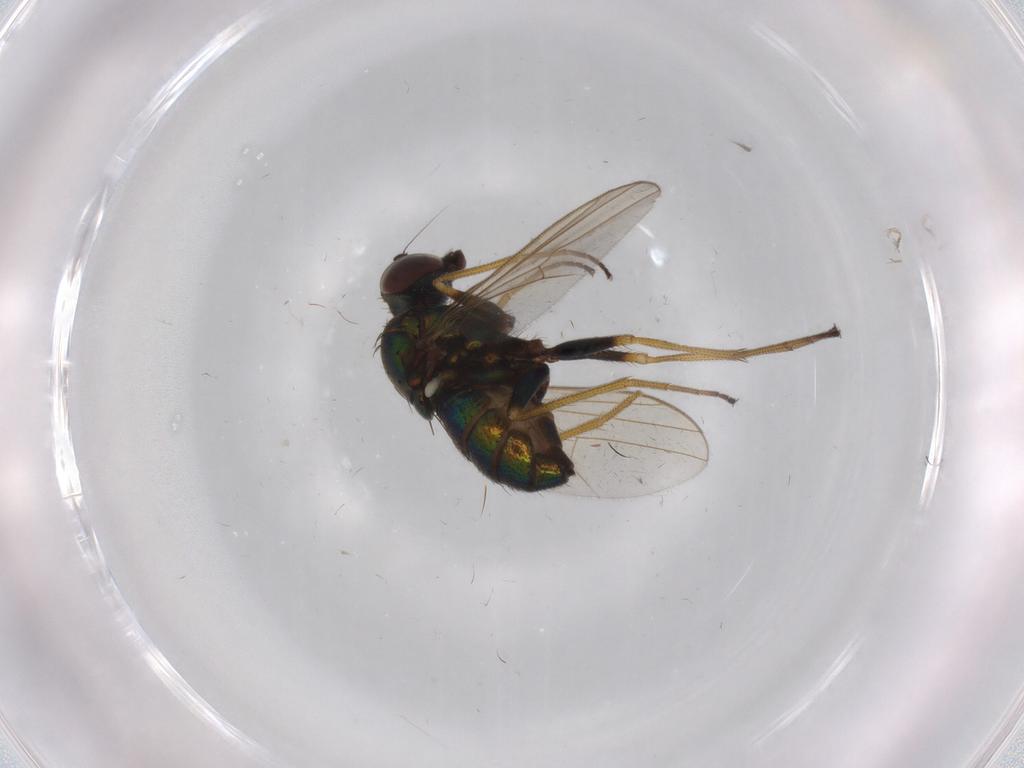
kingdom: Animalia
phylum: Arthropoda
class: Insecta
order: Diptera
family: Dolichopodidae
